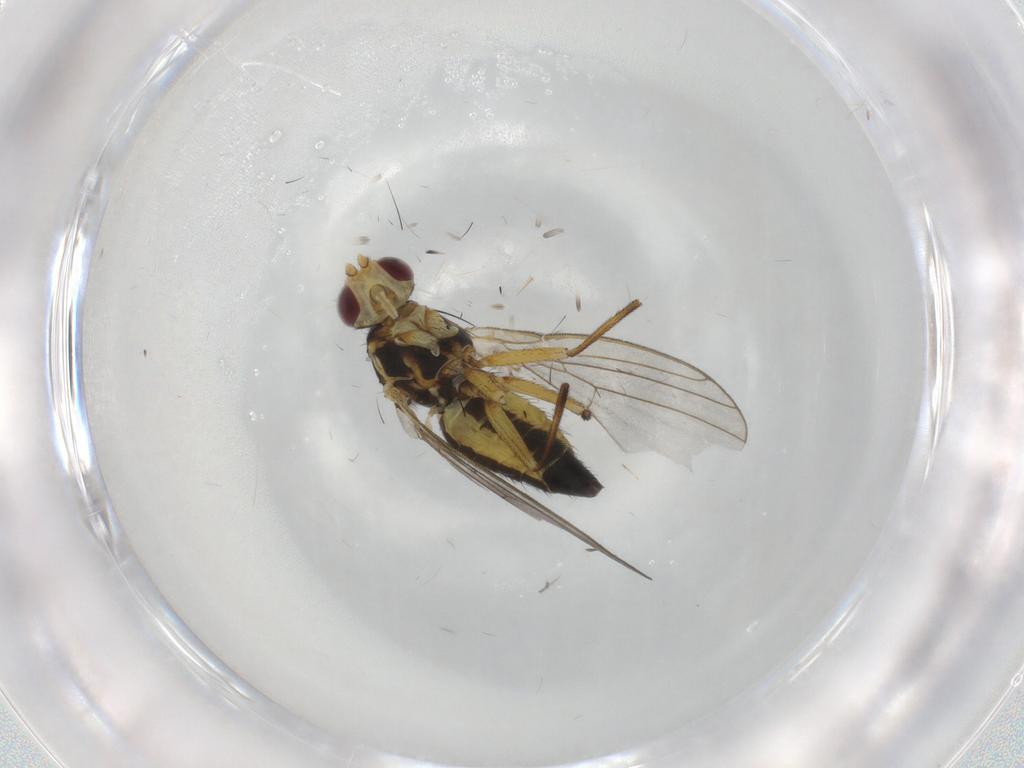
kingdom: Animalia
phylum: Arthropoda
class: Insecta
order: Diptera
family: Agromyzidae
